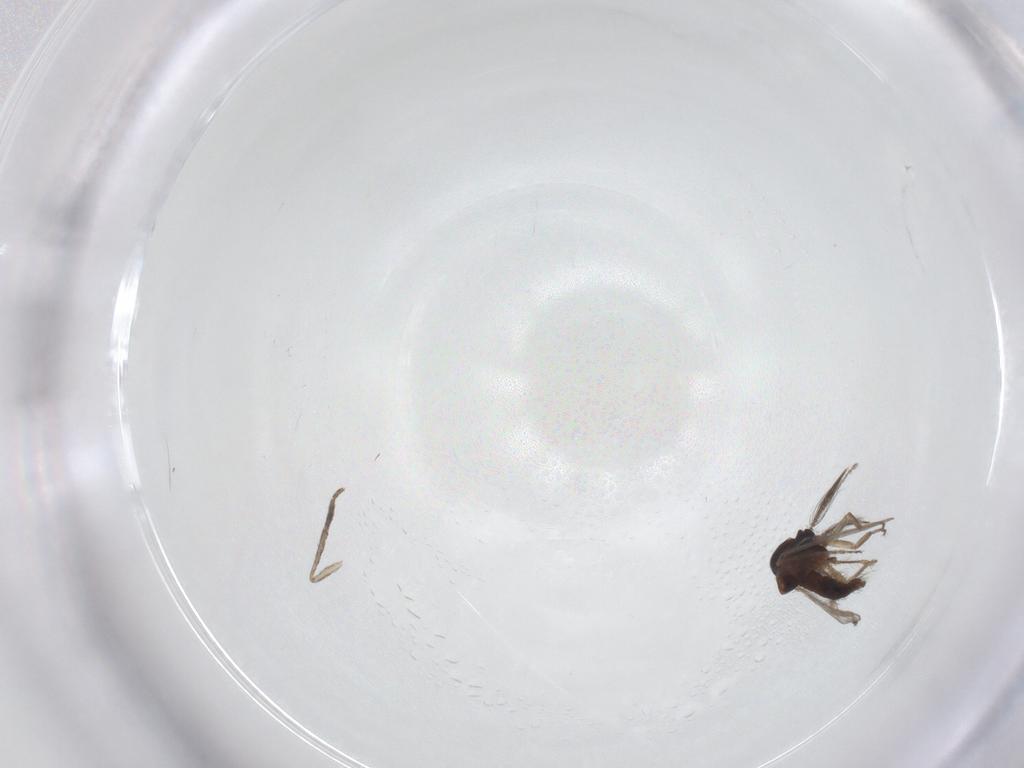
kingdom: Animalia
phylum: Arthropoda
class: Insecta
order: Diptera
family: Ceratopogonidae
